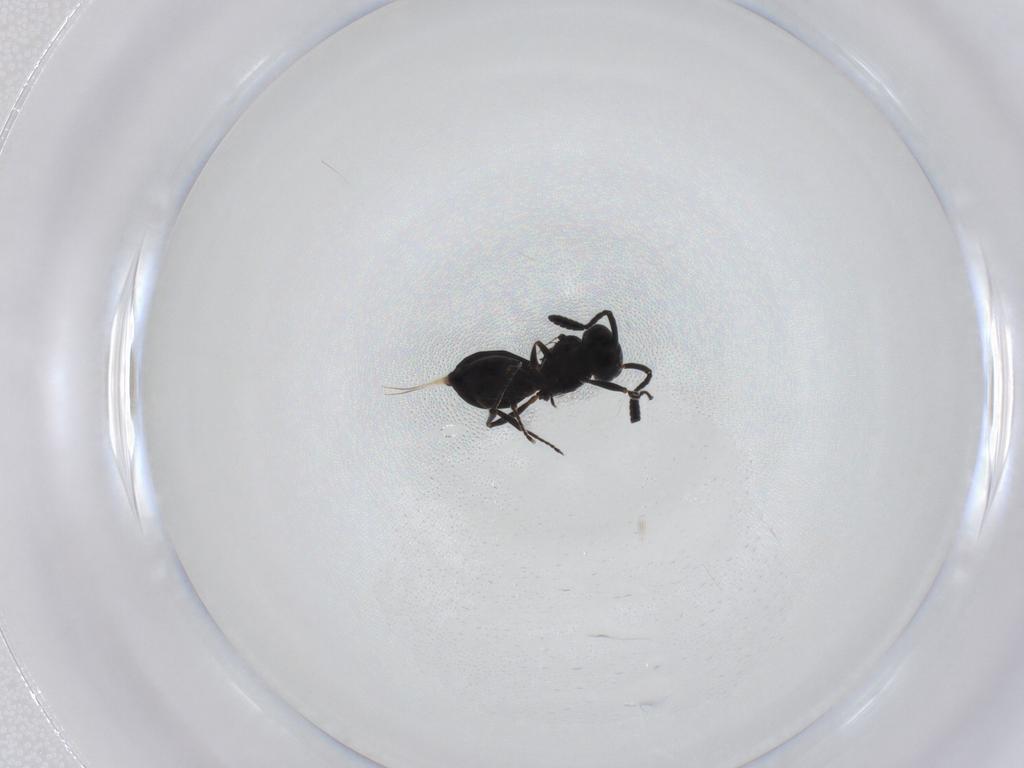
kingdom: Animalia
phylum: Arthropoda
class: Insecta
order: Hymenoptera
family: Scelionidae
